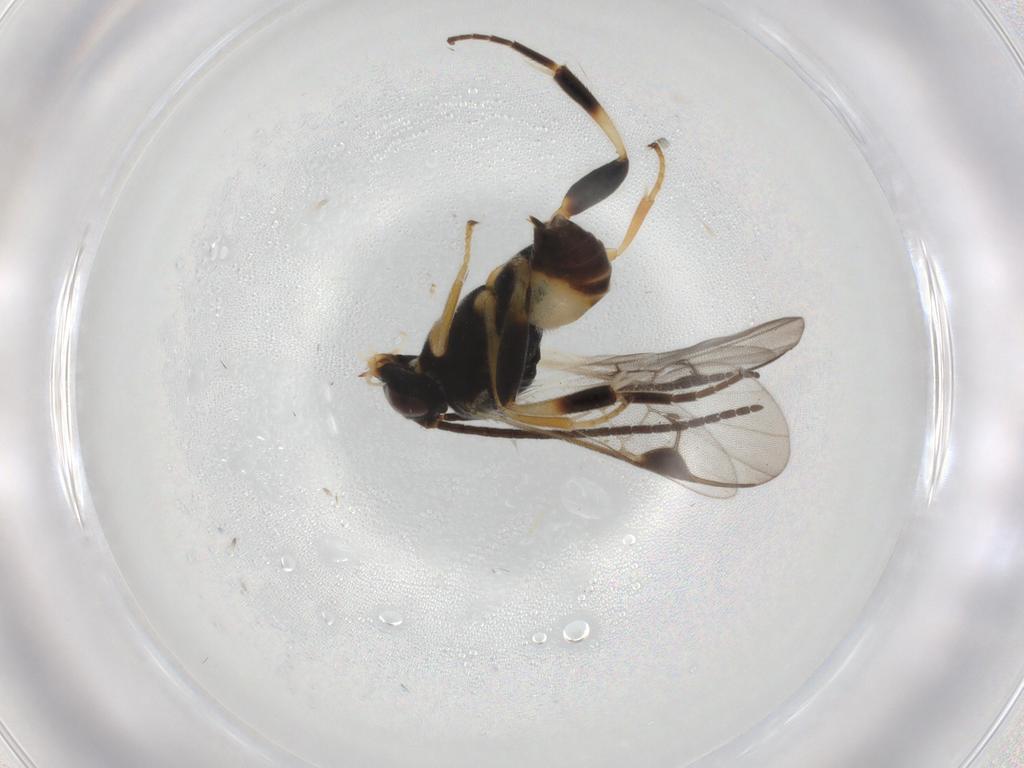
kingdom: Animalia
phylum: Arthropoda
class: Insecta
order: Hymenoptera
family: Braconidae
